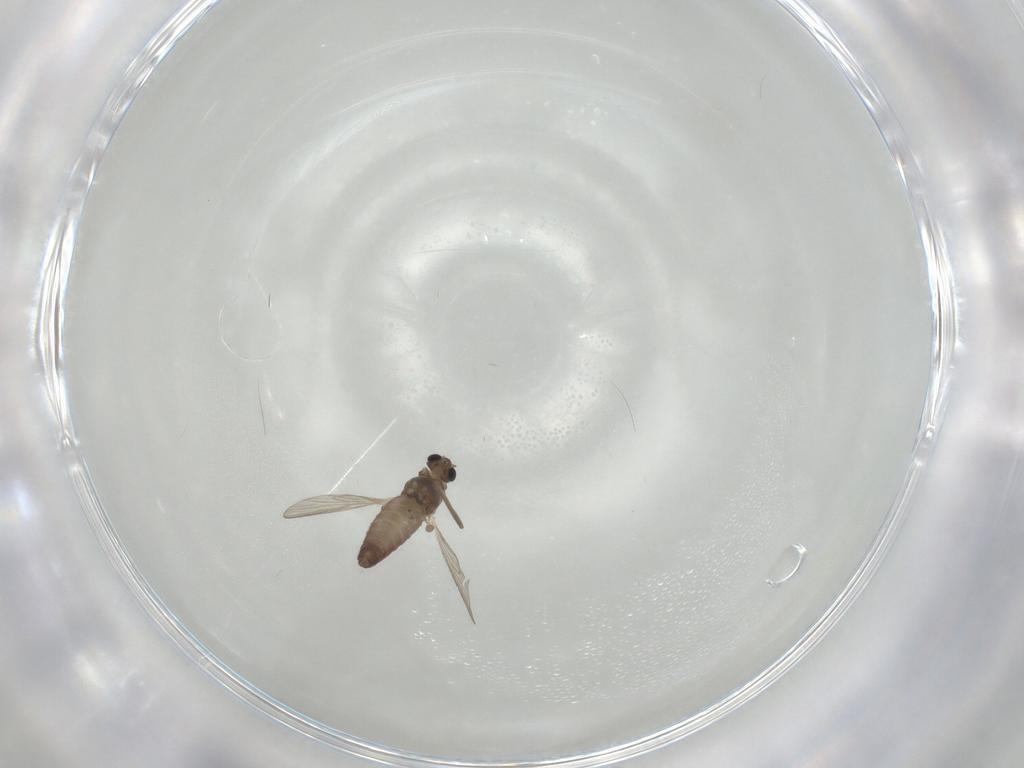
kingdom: Animalia
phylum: Arthropoda
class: Insecta
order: Diptera
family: Chironomidae
